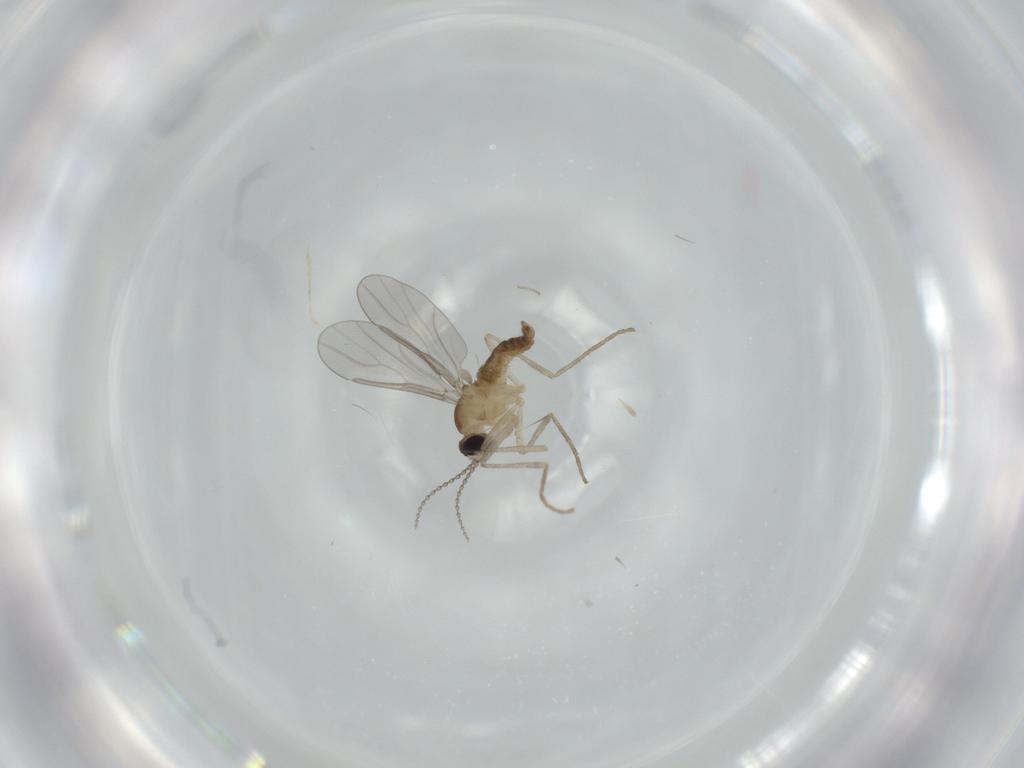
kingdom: Animalia
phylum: Arthropoda
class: Insecta
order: Diptera
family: Cecidomyiidae
